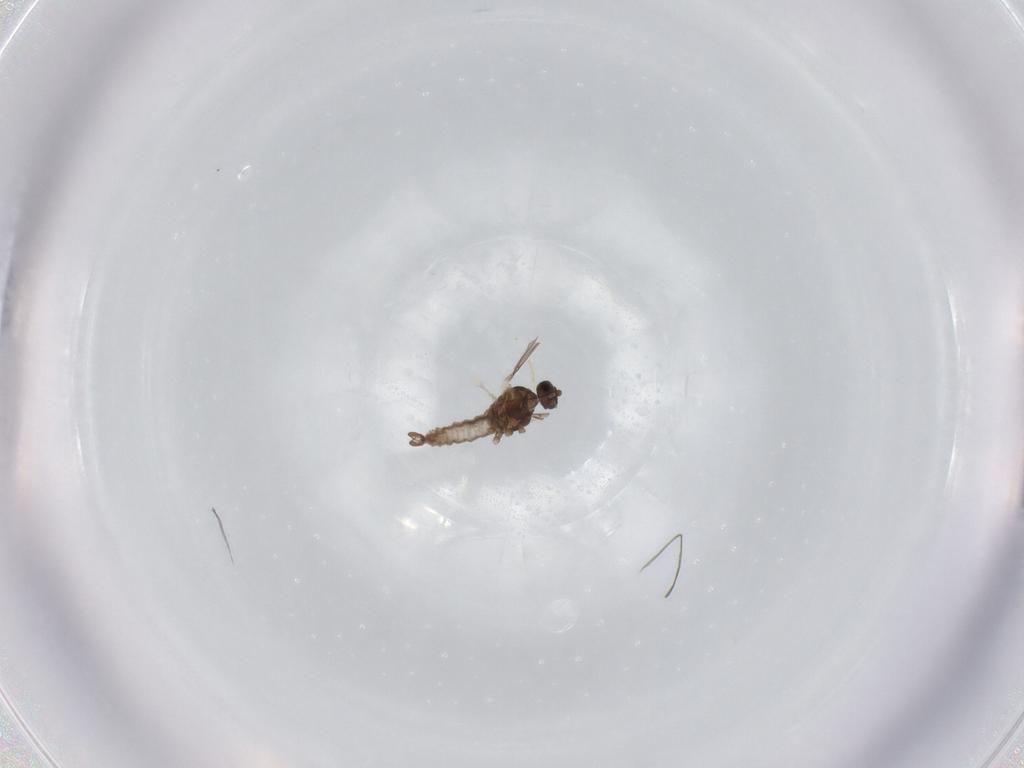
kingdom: Animalia
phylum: Arthropoda
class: Insecta
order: Diptera
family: Cecidomyiidae
